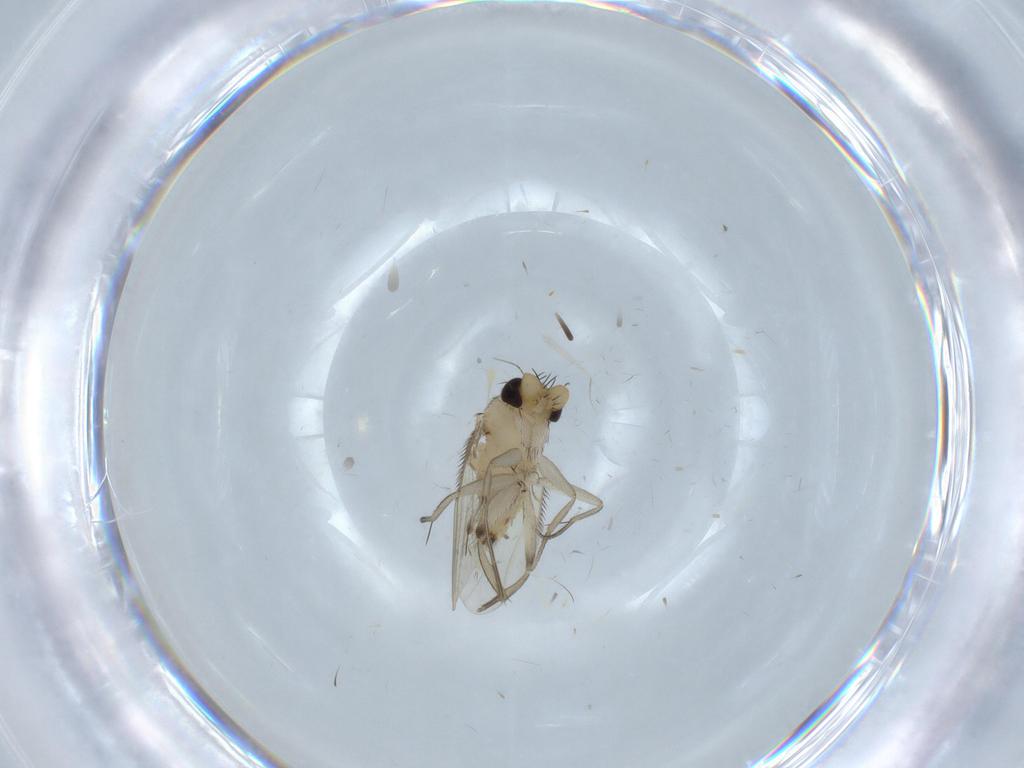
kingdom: Animalia
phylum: Arthropoda
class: Insecta
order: Diptera
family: Phoridae
